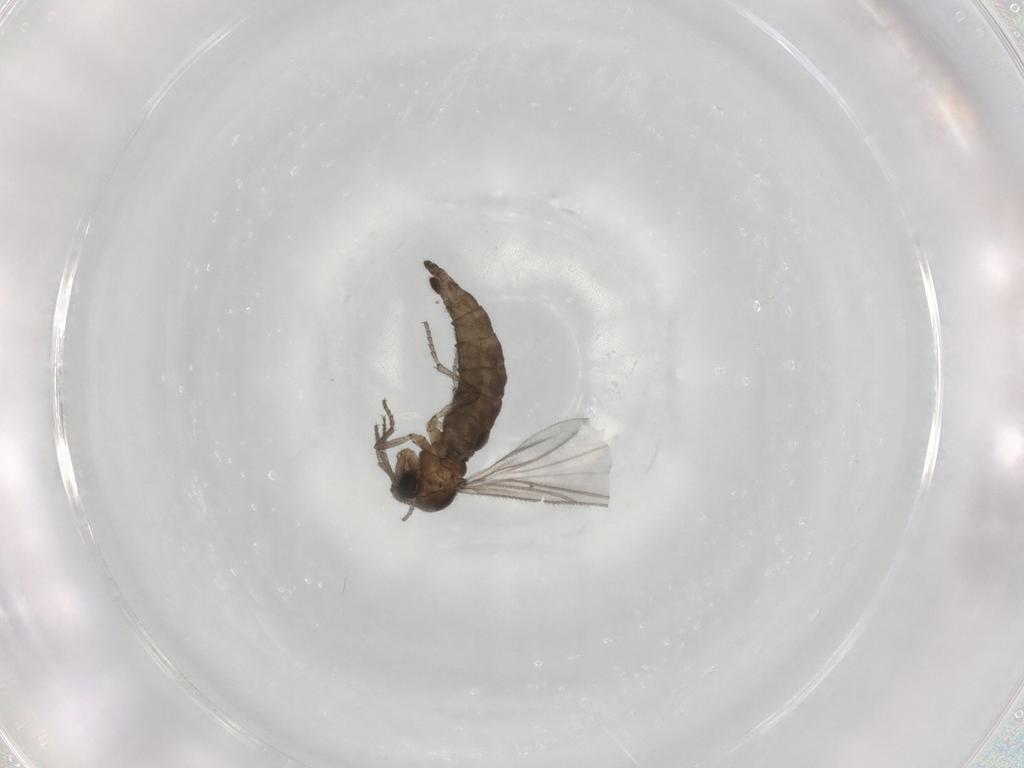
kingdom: Animalia
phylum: Arthropoda
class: Insecta
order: Diptera
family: Sciaridae
